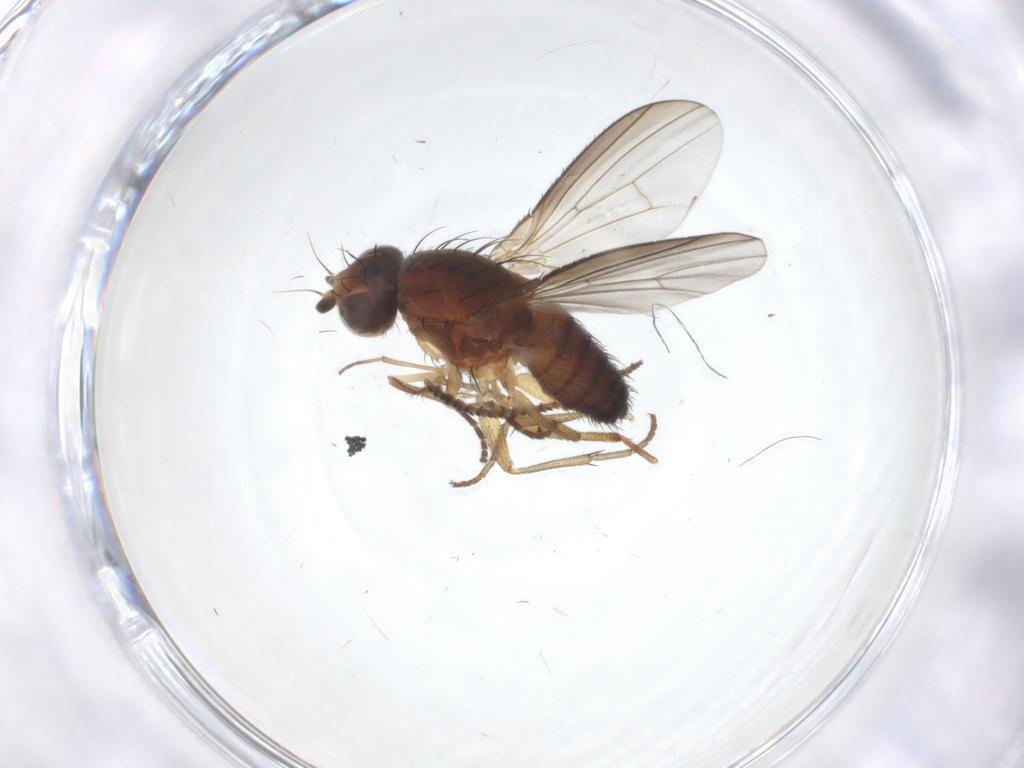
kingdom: Animalia
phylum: Arthropoda
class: Insecta
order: Diptera
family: Heleomyzidae
